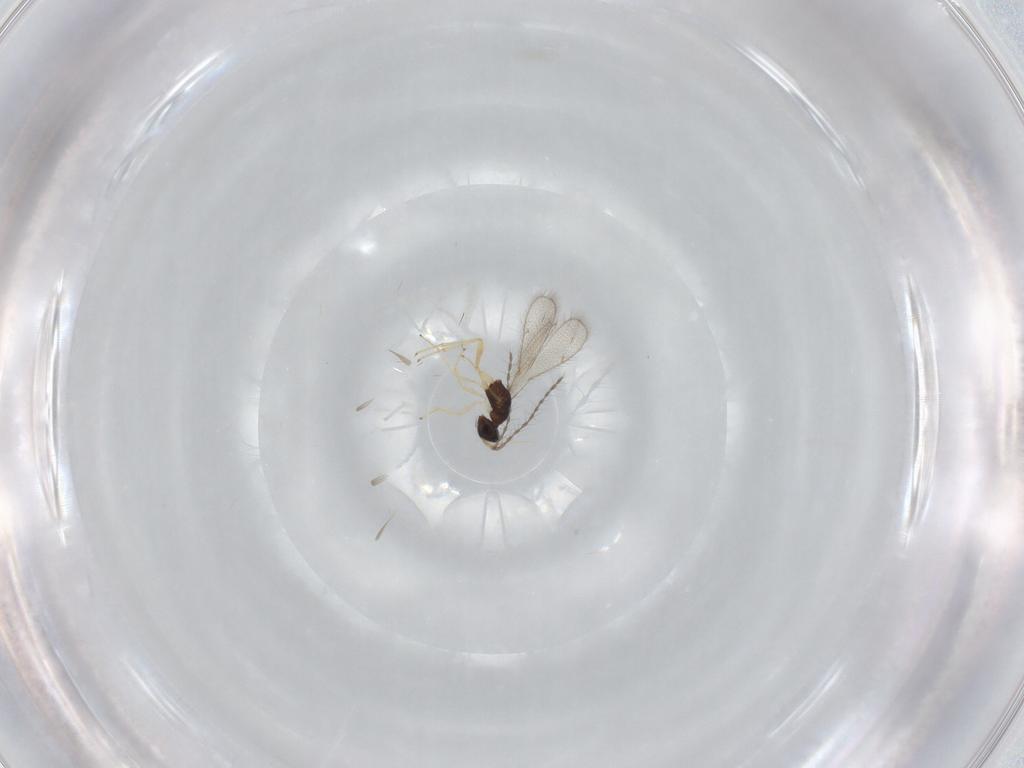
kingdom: Animalia
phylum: Arthropoda
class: Insecta
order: Hymenoptera
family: Pteromalidae
